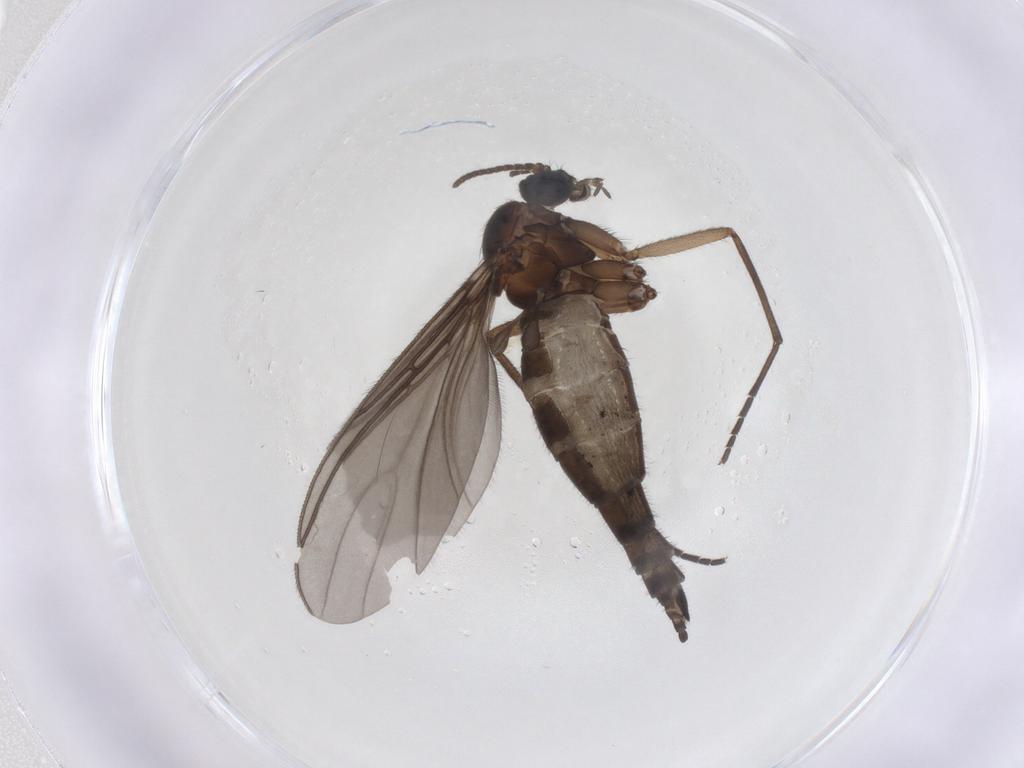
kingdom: Animalia
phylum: Arthropoda
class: Insecta
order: Diptera
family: Sciaridae
